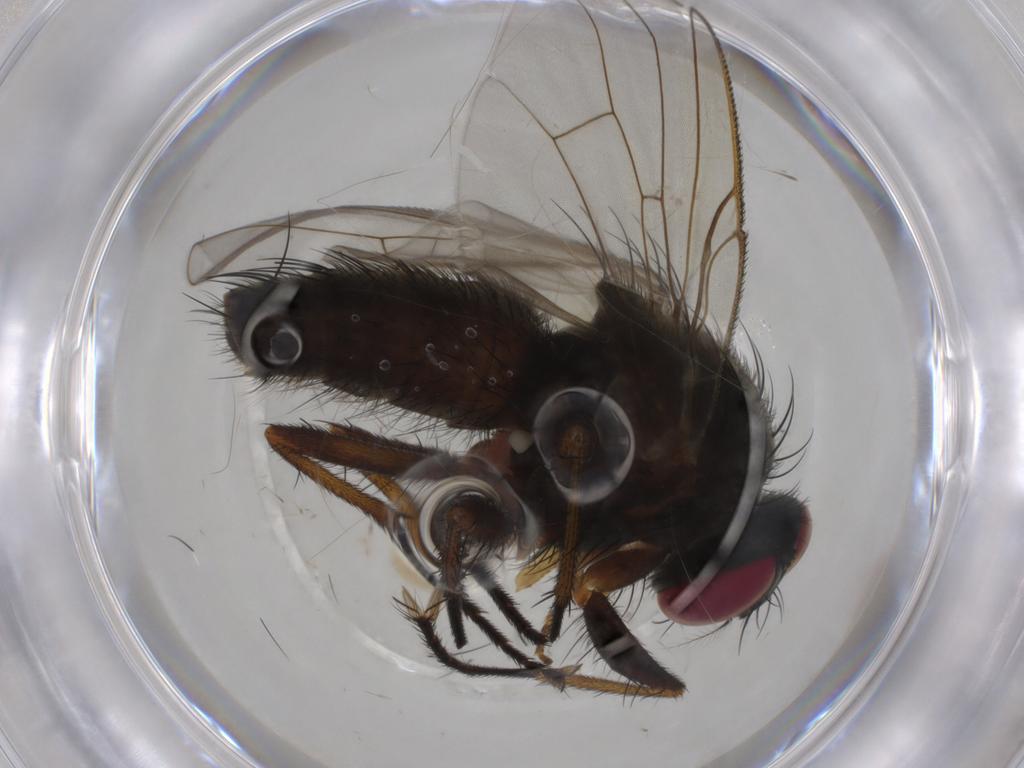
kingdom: Animalia
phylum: Arthropoda
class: Insecta
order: Diptera
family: Muscidae
